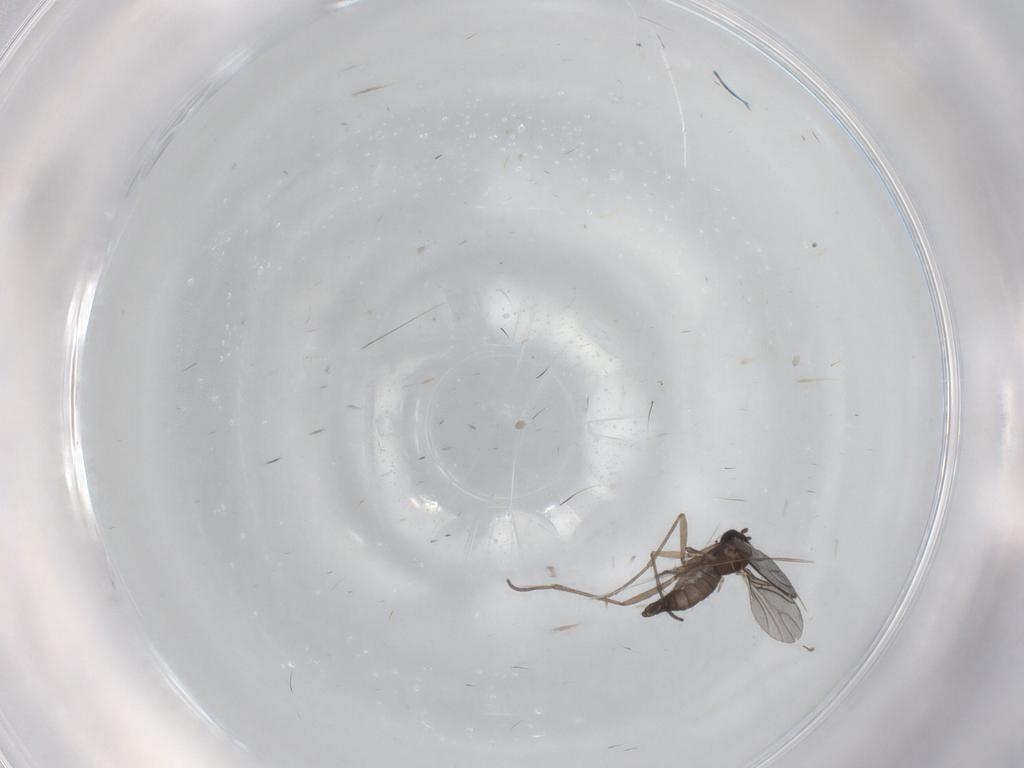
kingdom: Animalia
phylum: Arthropoda
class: Insecta
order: Diptera
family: Sciaridae
